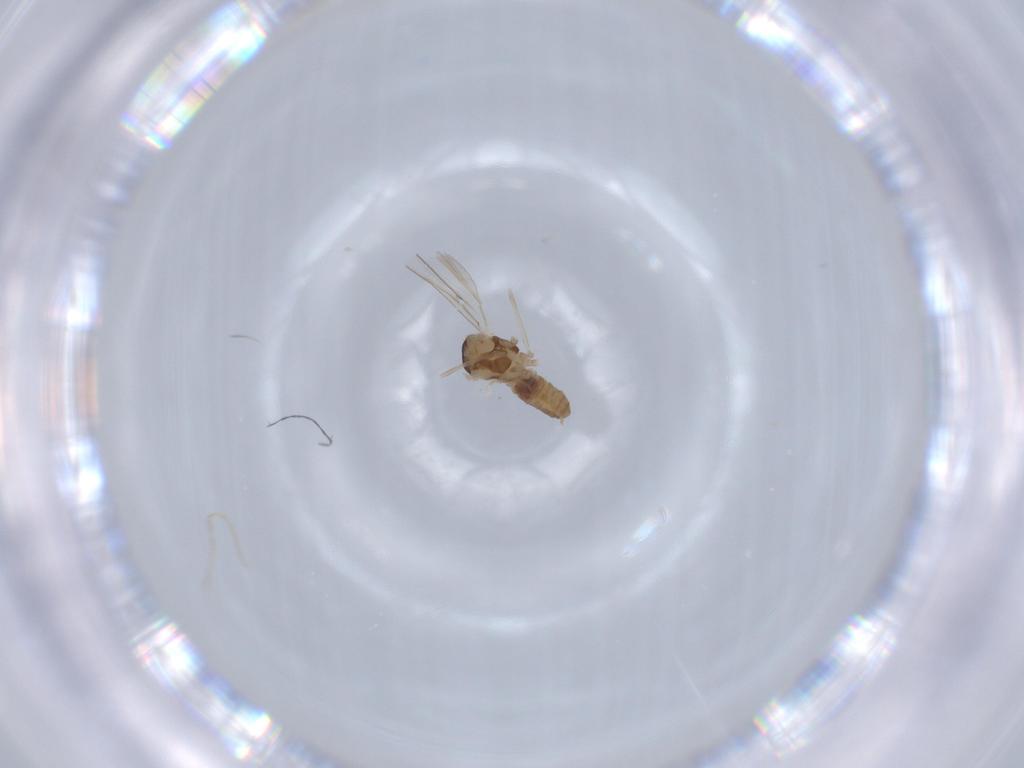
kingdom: Animalia
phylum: Arthropoda
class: Insecta
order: Diptera
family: Cecidomyiidae
